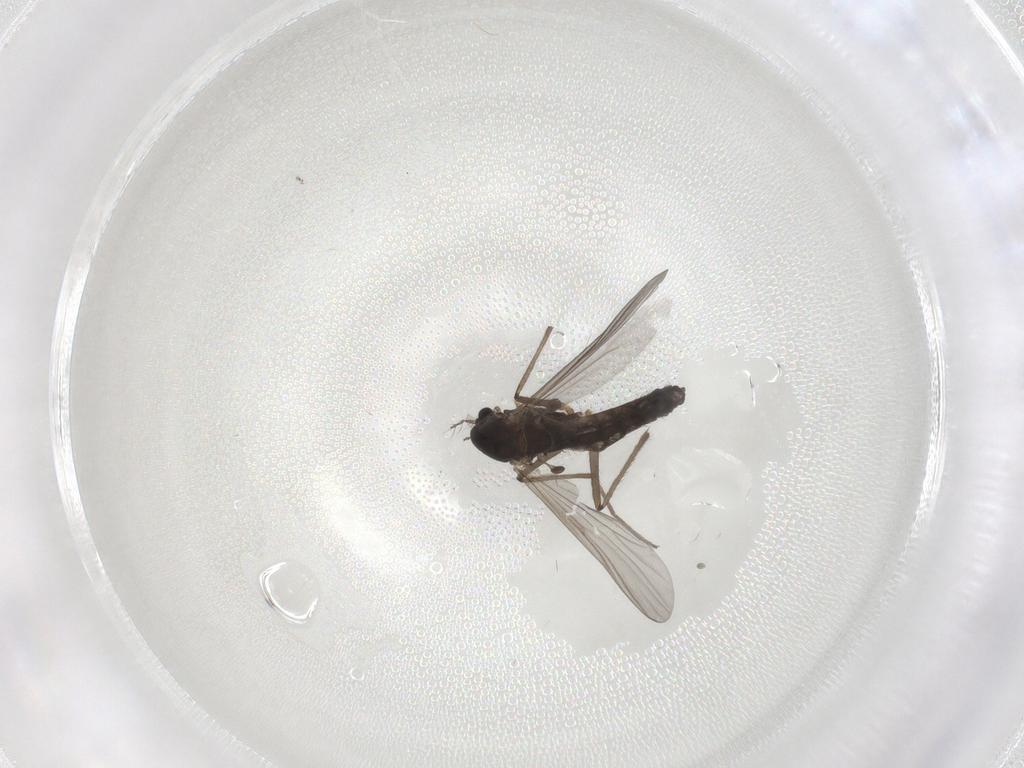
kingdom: Animalia
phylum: Arthropoda
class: Insecta
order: Diptera
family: Chironomidae
